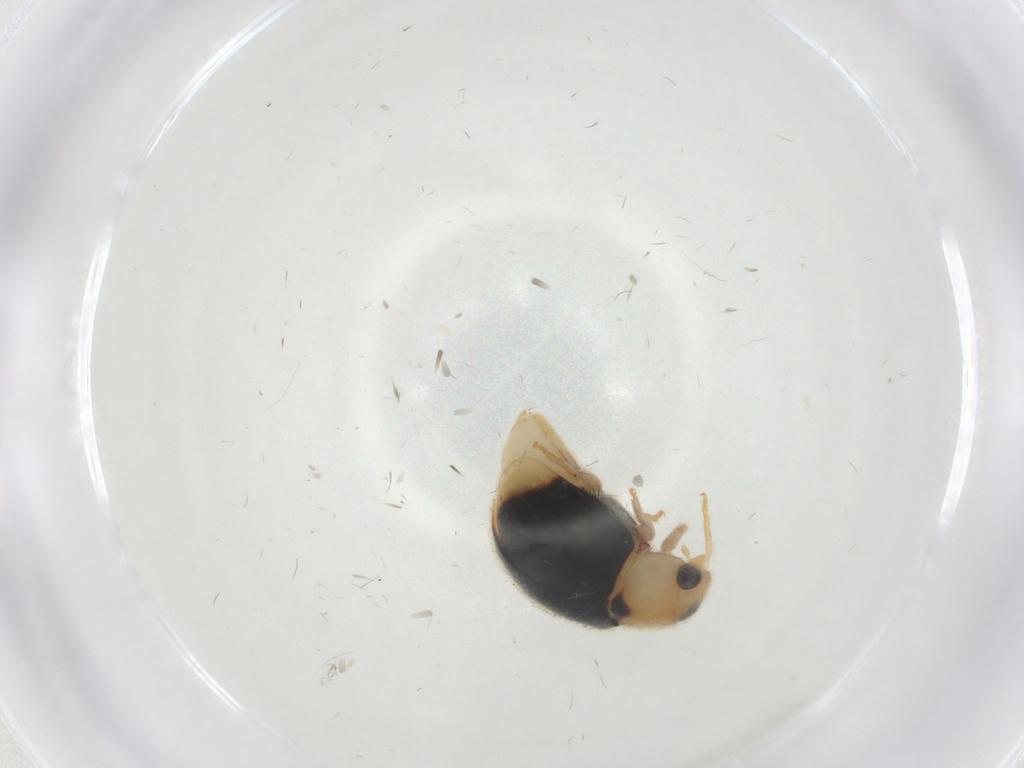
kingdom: Animalia
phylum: Arthropoda
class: Insecta
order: Coleoptera
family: Coccinellidae
